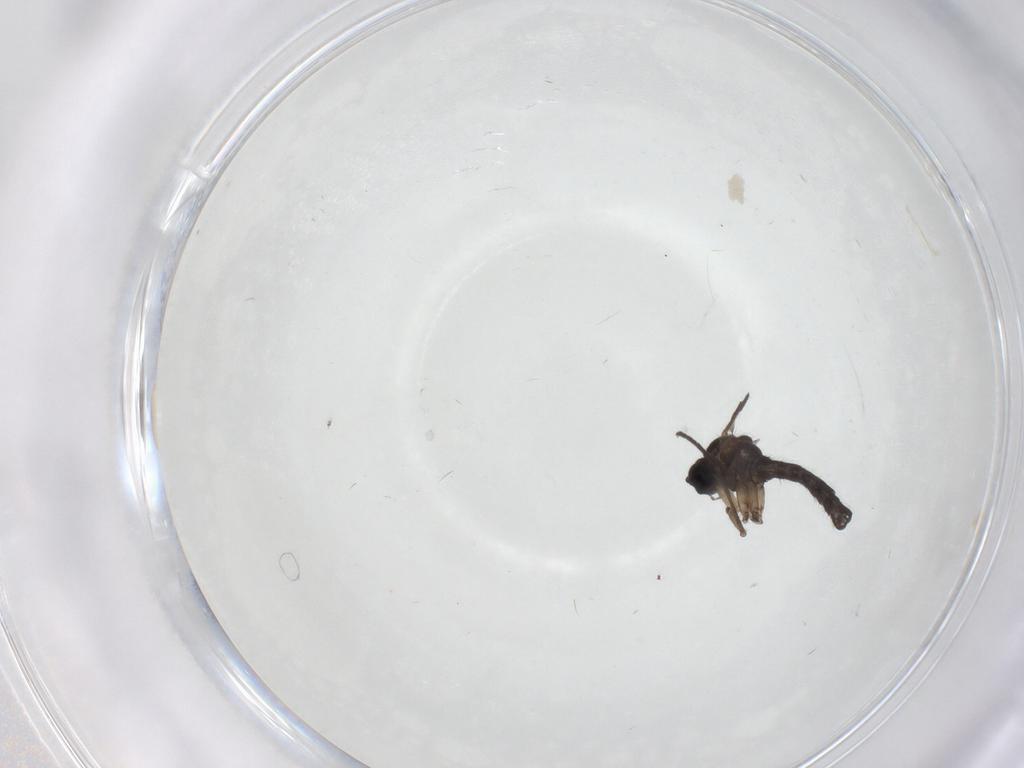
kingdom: Animalia
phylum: Arthropoda
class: Insecta
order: Diptera
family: Sciaridae
